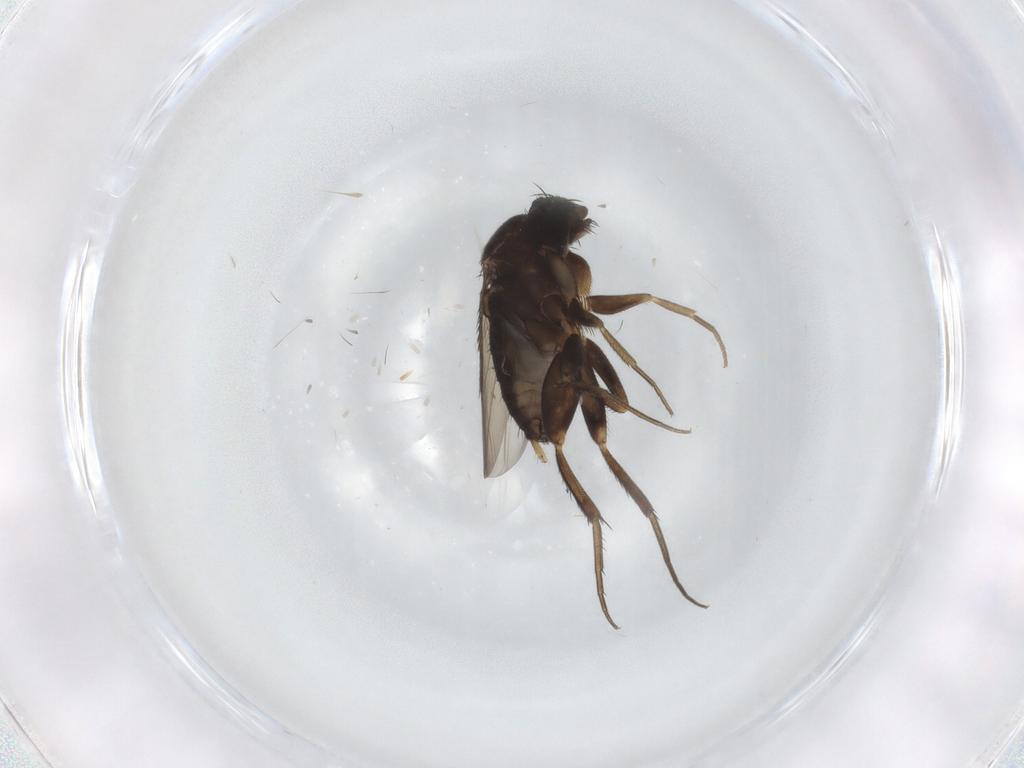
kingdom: Animalia
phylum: Arthropoda
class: Insecta
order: Diptera
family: Phoridae
